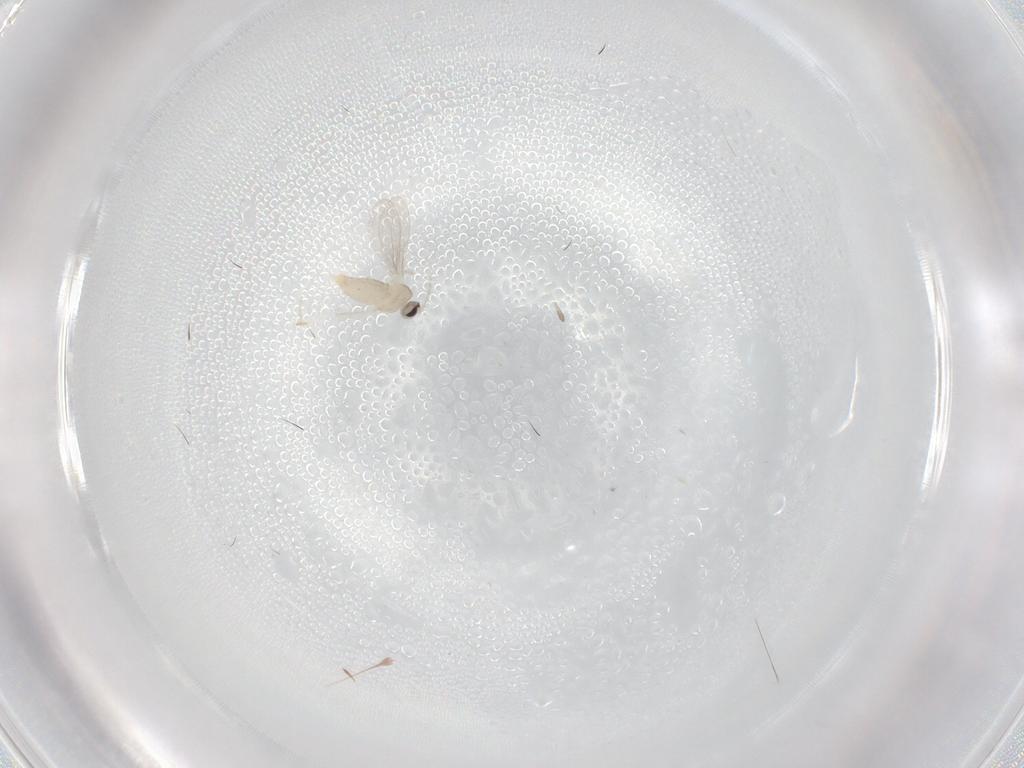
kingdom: Animalia
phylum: Arthropoda
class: Insecta
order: Diptera
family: Cecidomyiidae
